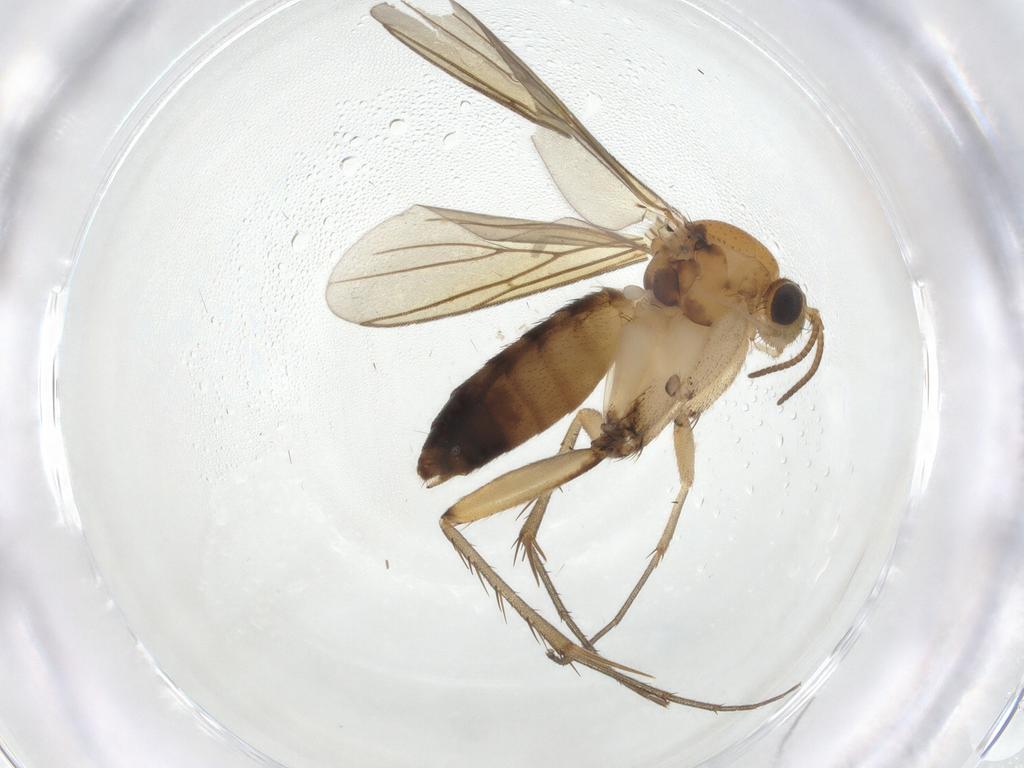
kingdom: Animalia
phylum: Arthropoda
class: Insecta
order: Diptera
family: Mycetophilidae
